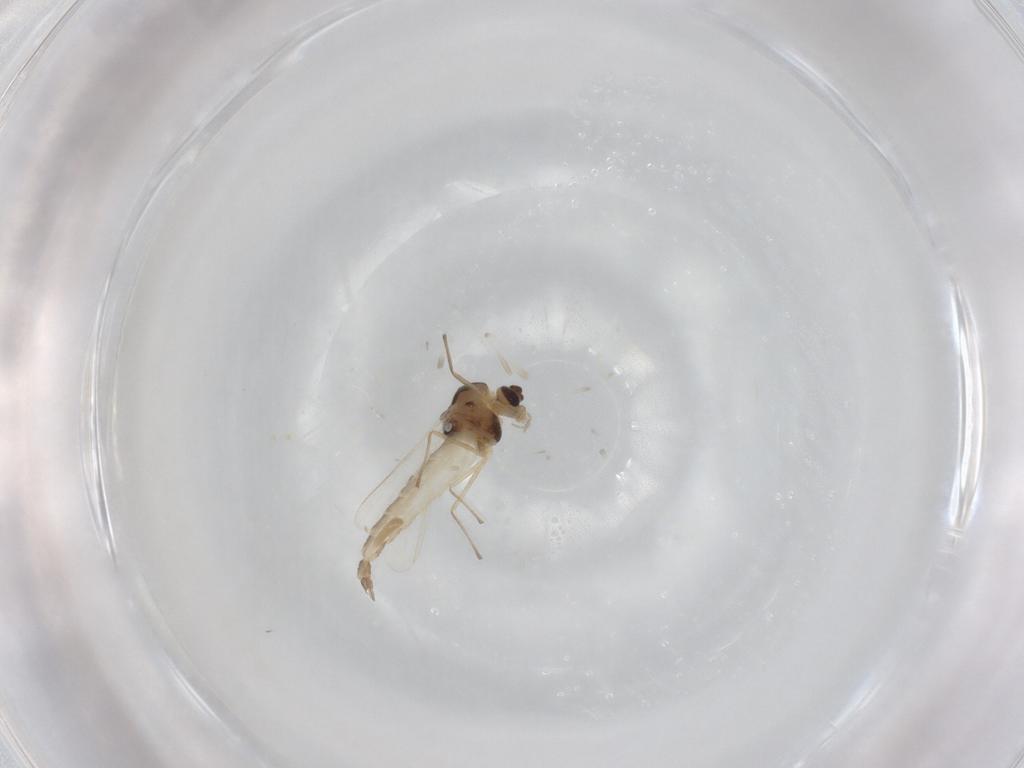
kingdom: Animalia
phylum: Arthropoda
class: Insecta
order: Diptera
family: Chironomidae
